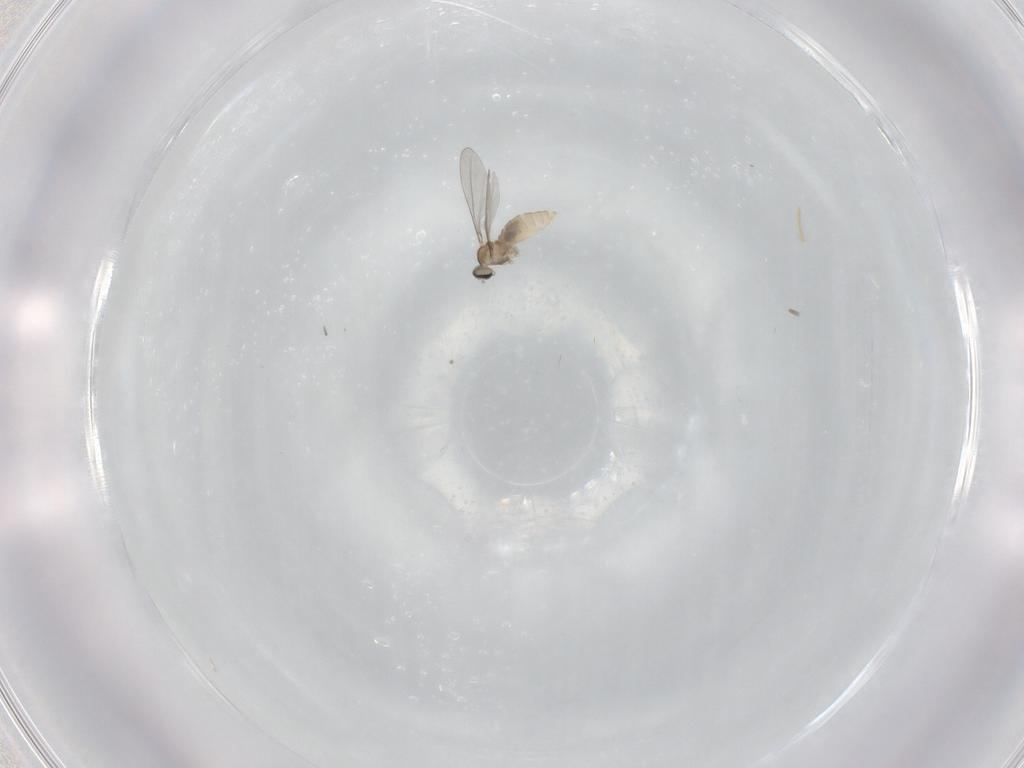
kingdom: Animalia
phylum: Arthropoda
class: Insecta
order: Diptera
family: Cecidomyiidae
